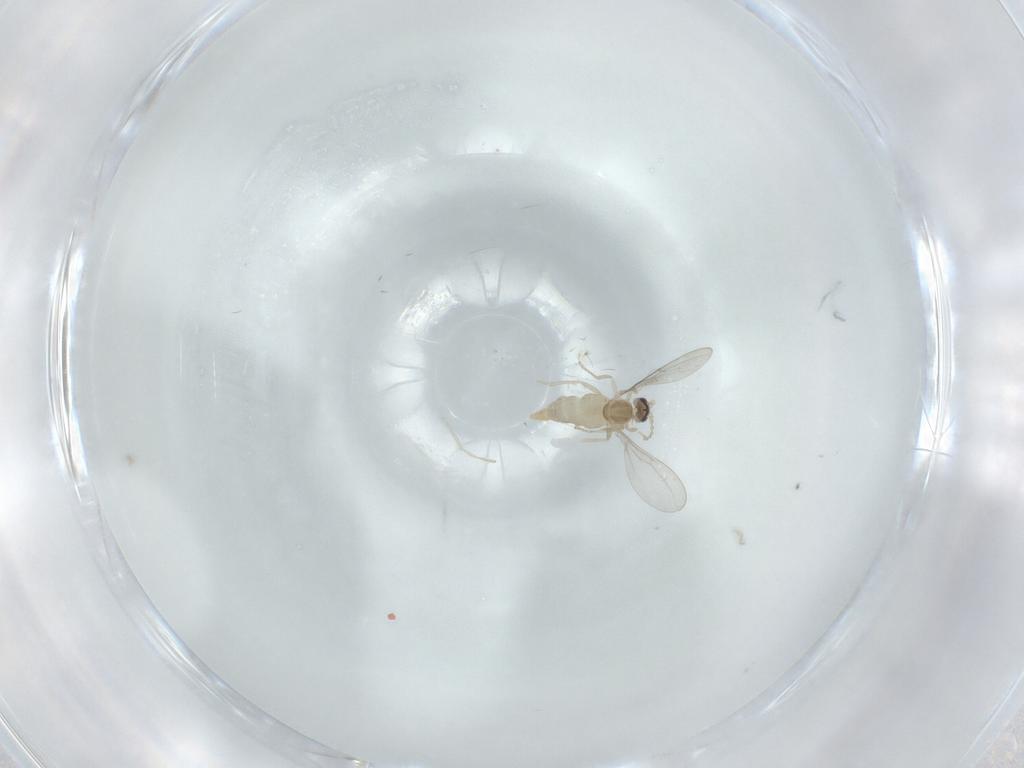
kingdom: Animalia
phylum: Arthropoda
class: Insecta
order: Diptera
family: Cecidomyiidae
